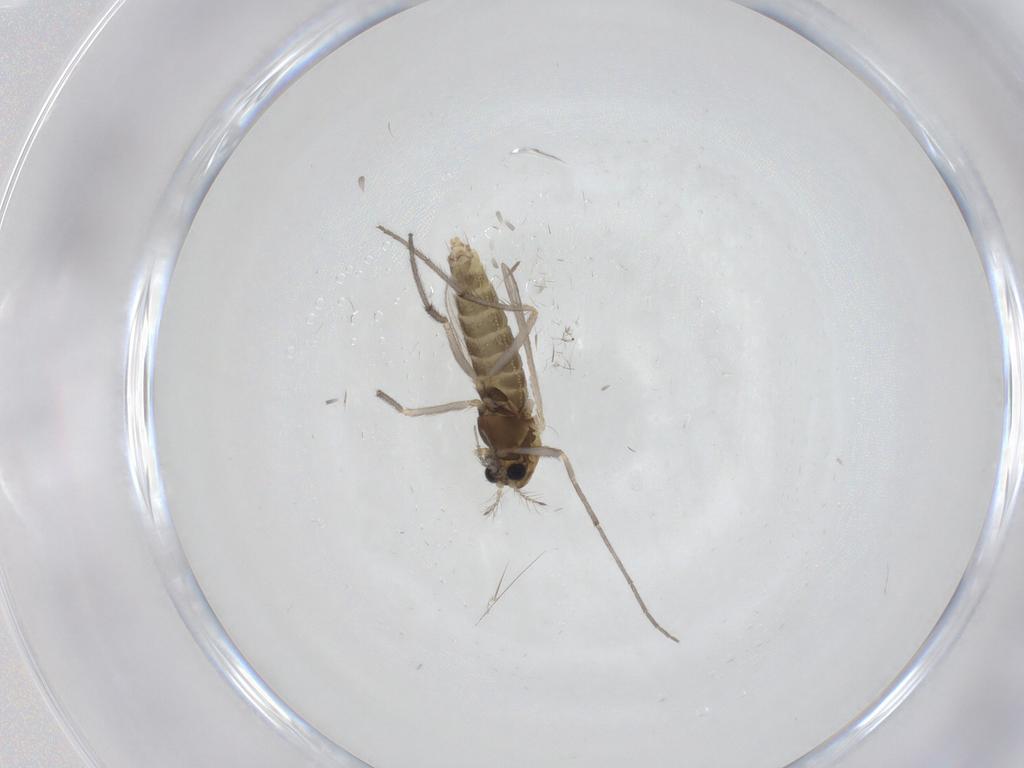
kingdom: Animalia
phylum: Arthropoda
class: Insecta
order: Diptera
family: Chironomidae
